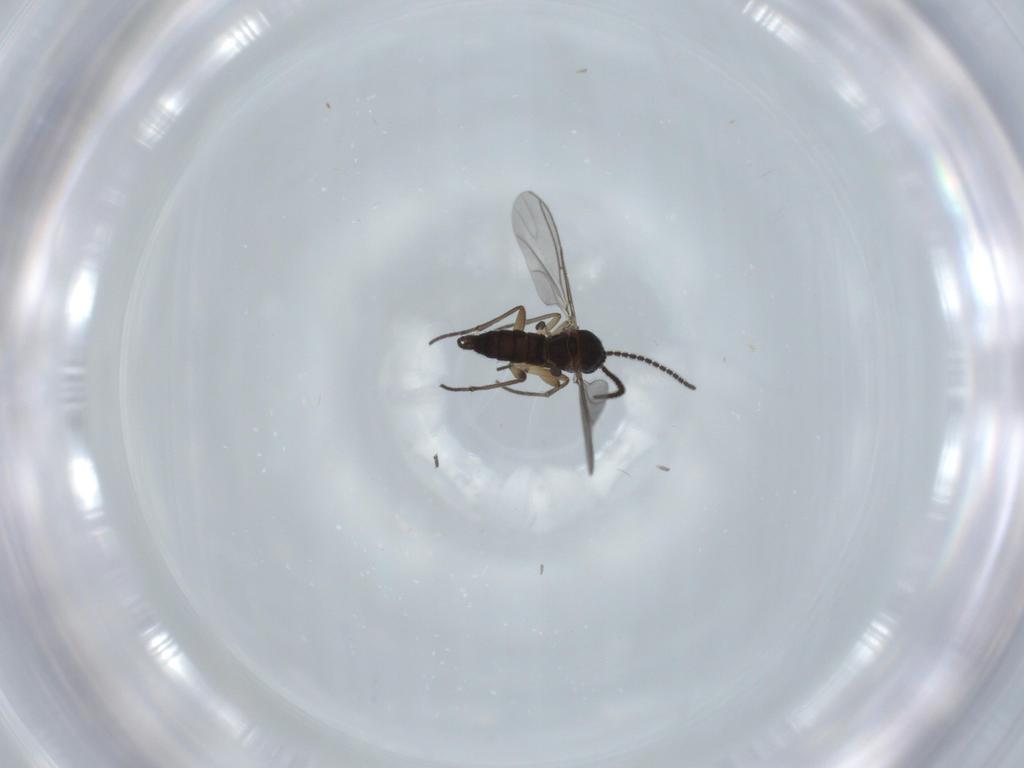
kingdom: Animalia
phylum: Arthropoda
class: Insecta
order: Diptera
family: Sciaridae
